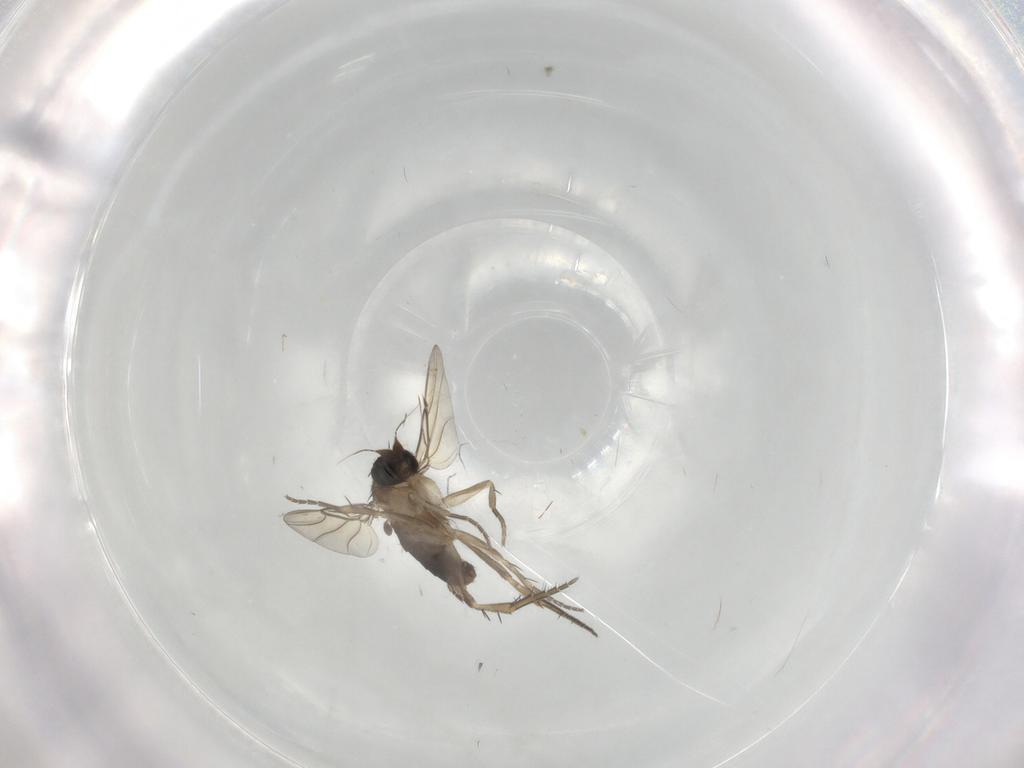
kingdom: Animalia
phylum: Arthropoda
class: Insecta
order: Diptera
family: Phoridae
